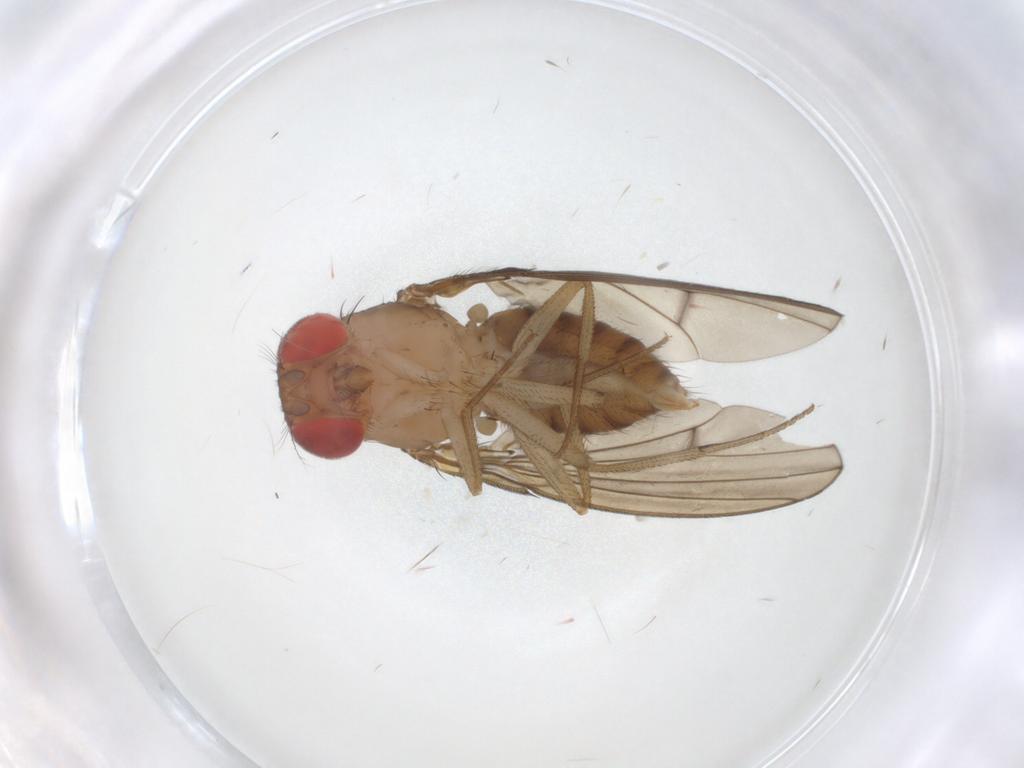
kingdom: Animalia
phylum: Arthropoda
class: Insecta
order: Diptera
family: Drosophilidae
